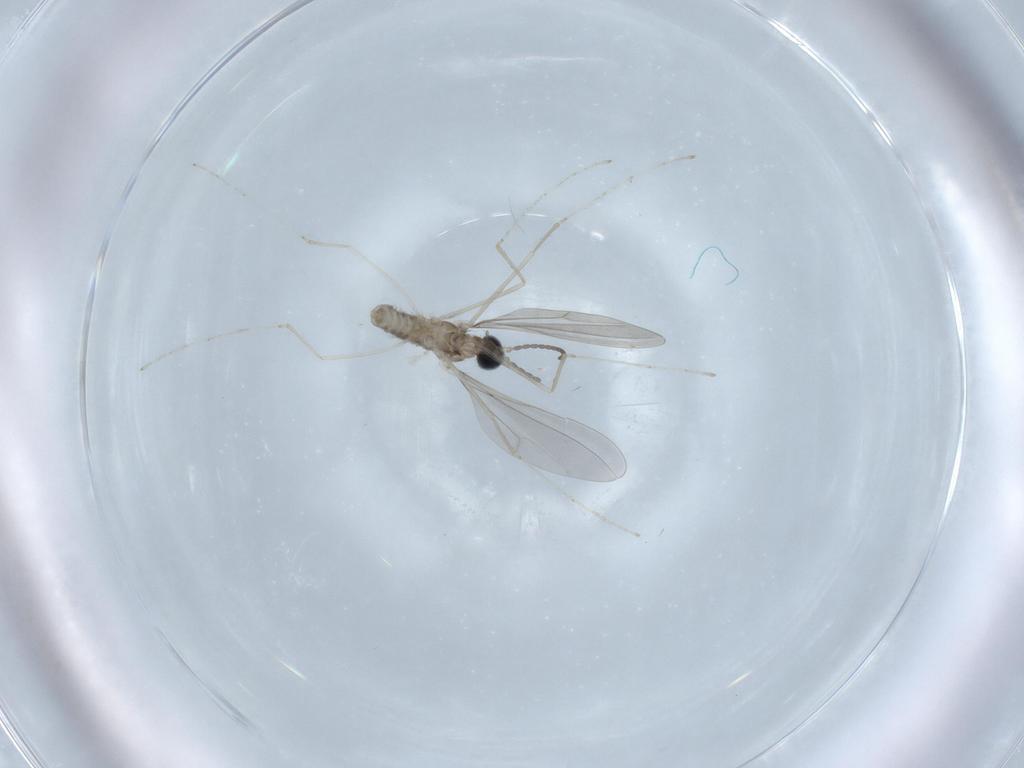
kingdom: Animalia
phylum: Arthropoda
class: Insecta
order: Diptera
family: Cecidomyiidae
